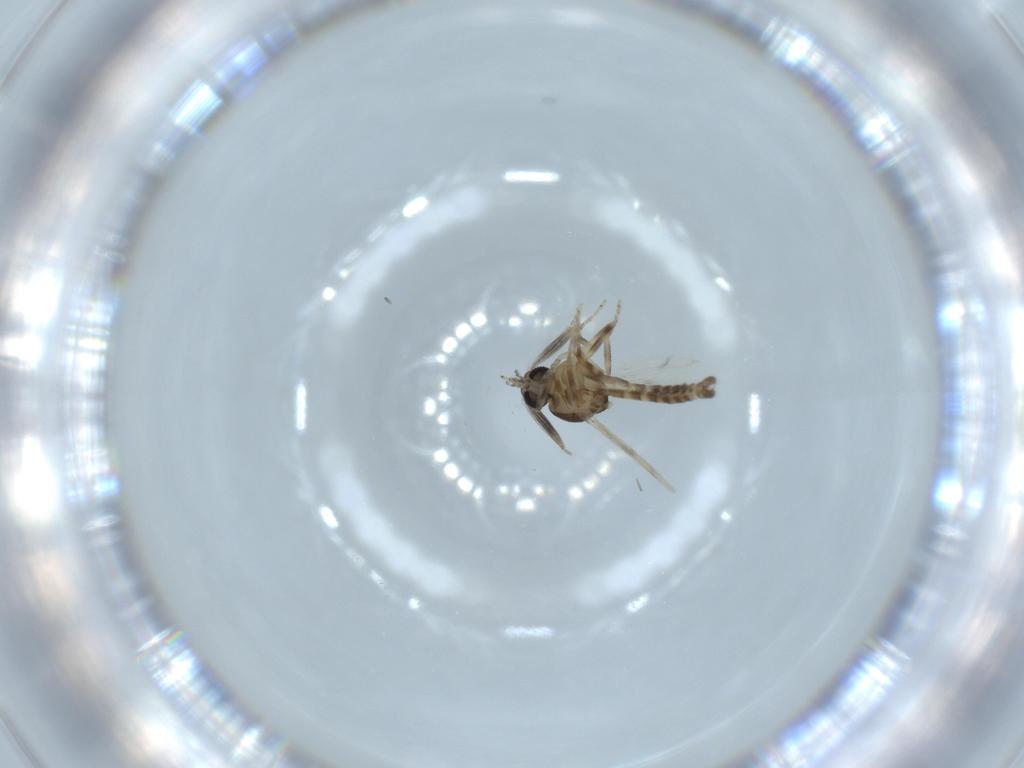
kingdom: Animalia
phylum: Arthropoda
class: Insecta
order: Diptera
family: Ceratopogonidae
